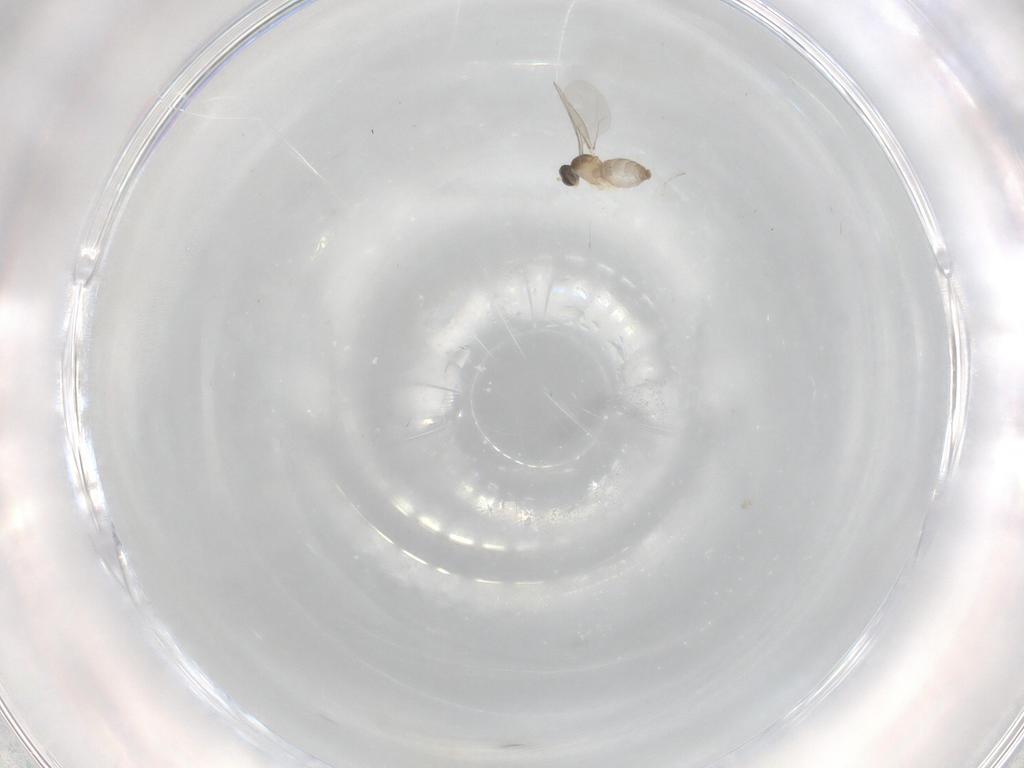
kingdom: Animalia
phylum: Arthropoda
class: Insecta
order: Diptera
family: Cecidomyiidae
